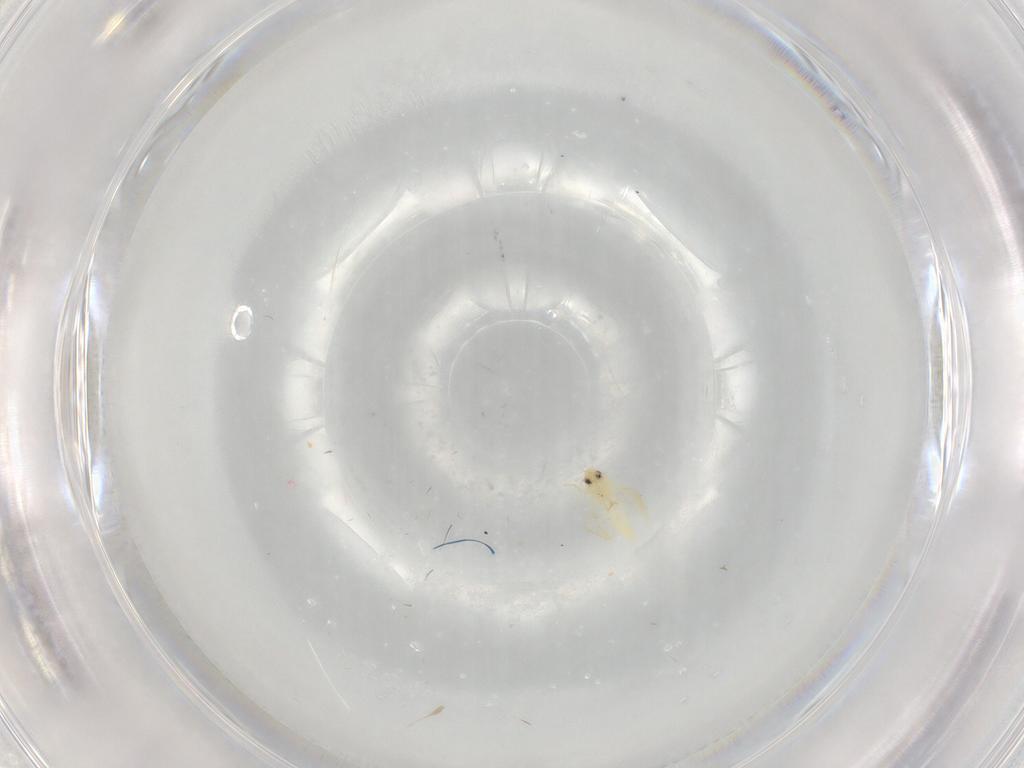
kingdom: Animalia
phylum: Arthropoda
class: Insecta
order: Hemiptera
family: Aleyrodidae
